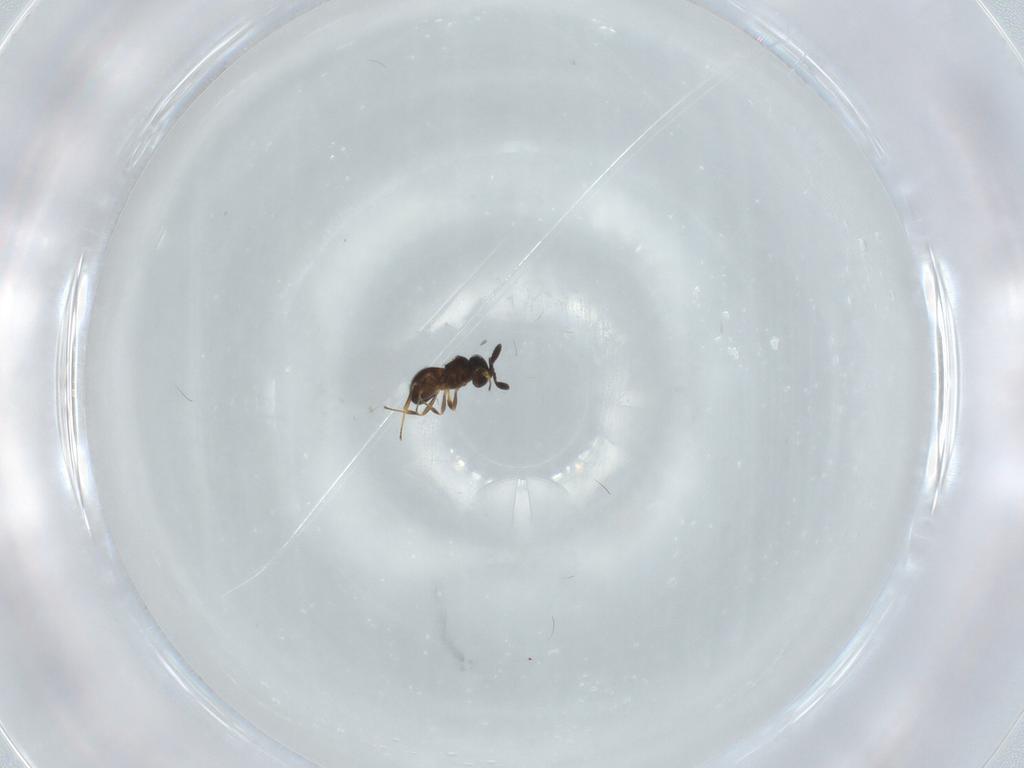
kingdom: Animalia
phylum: Arthropoda
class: Insecta
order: Hymenoptera
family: Scelionidae
